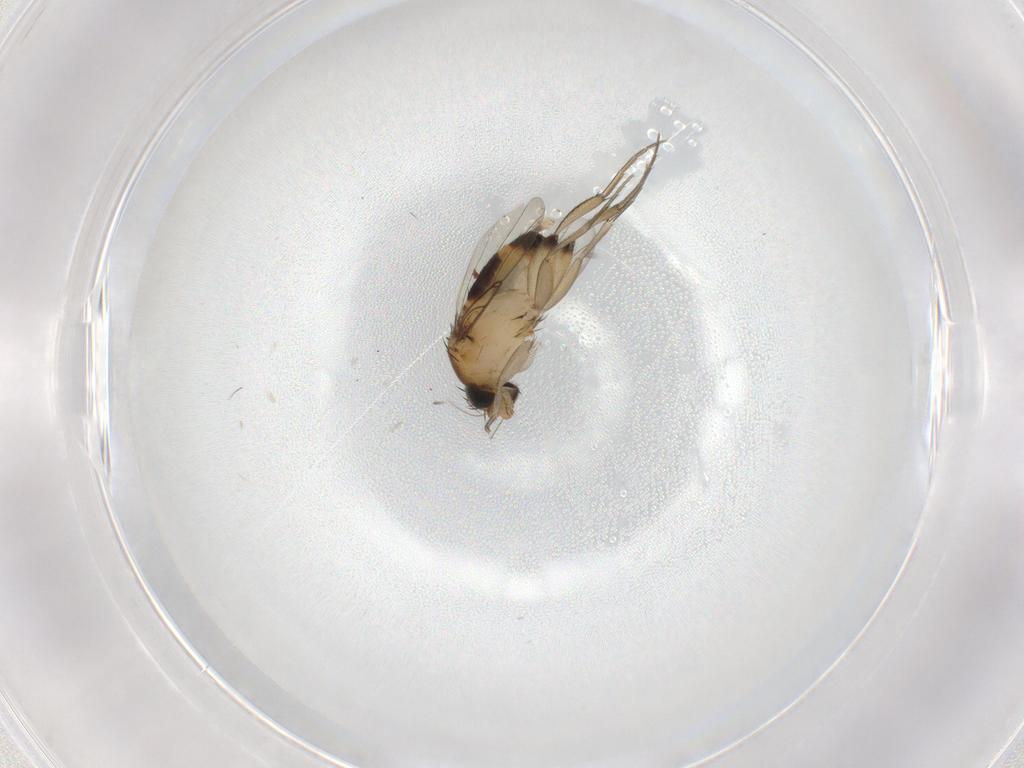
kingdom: Animalia
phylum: Arthropoda
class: Insecta
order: Diptera
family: Phoridae
